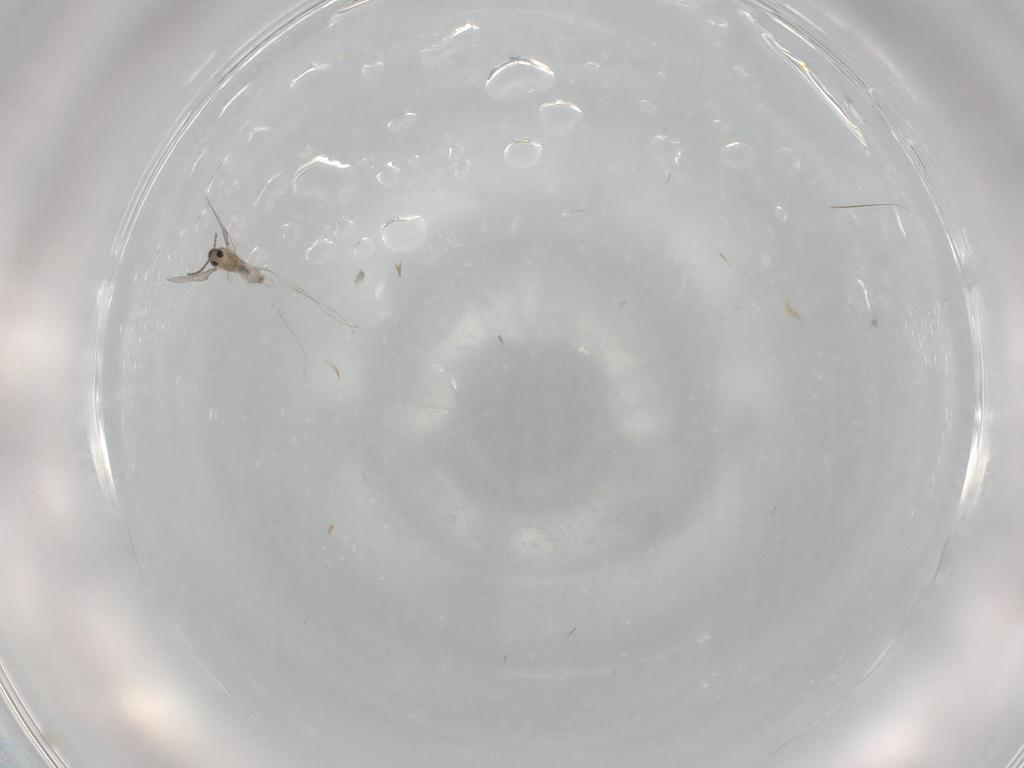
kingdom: Animalia
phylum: Arthropoda
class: Insecta
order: Diptera
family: Cecidomyiidae
